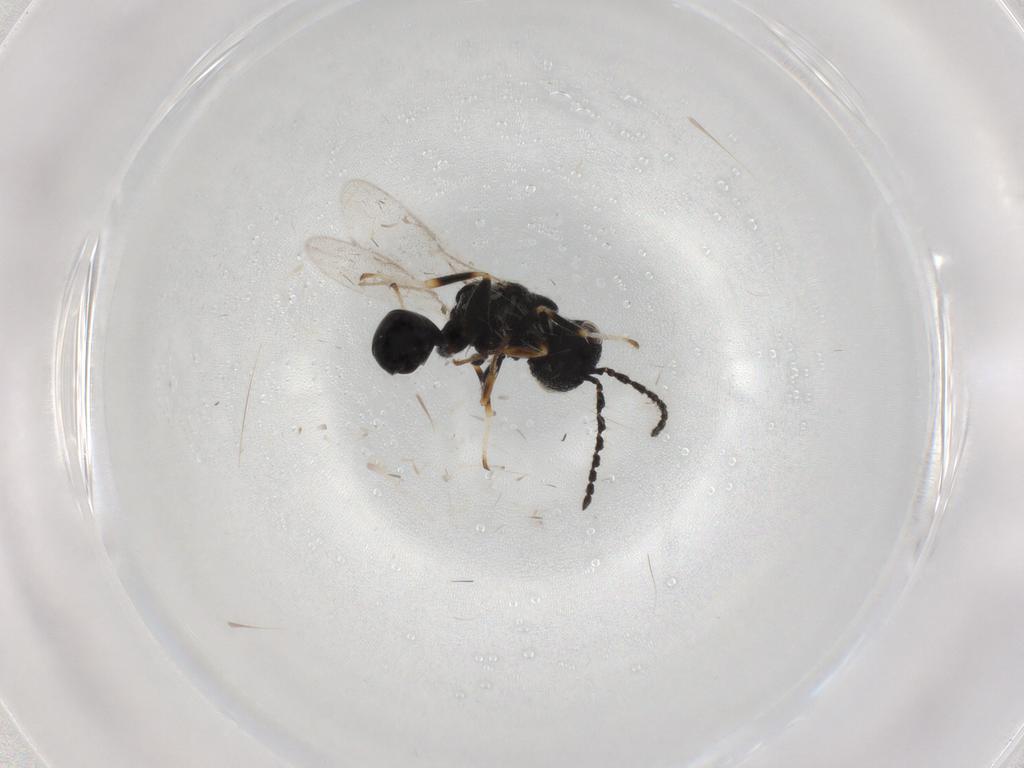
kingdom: Animalia
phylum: Arthropoda
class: Insecta
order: Hymenoptera
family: Eurytomidae
